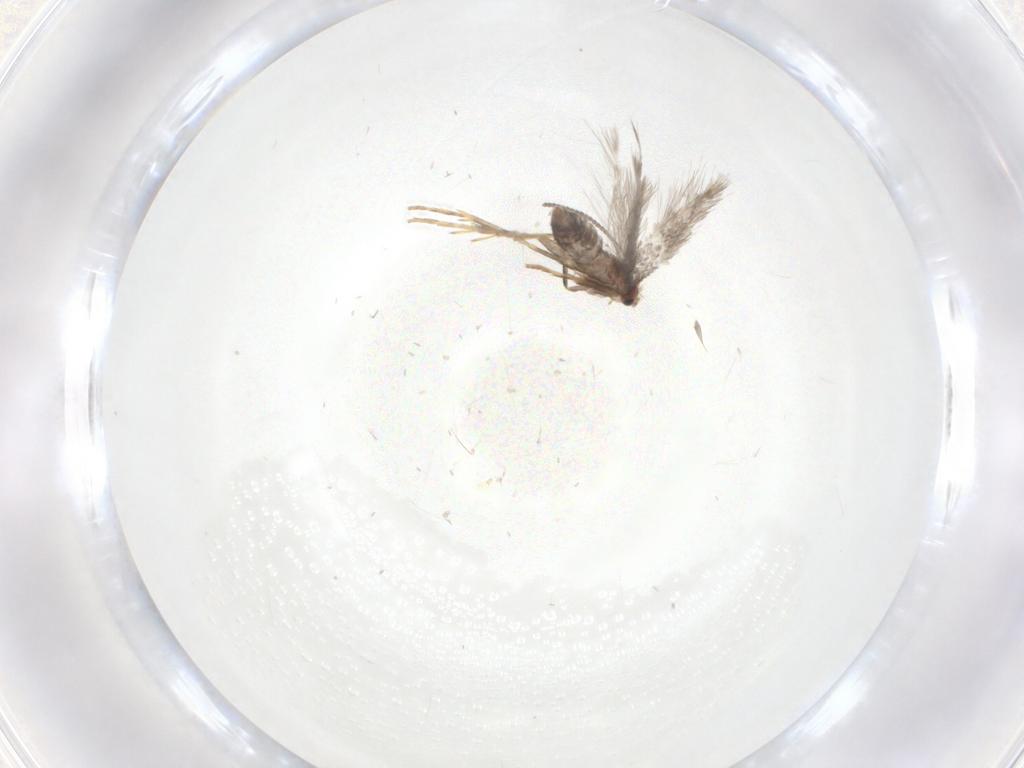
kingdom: Animalia
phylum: Arthropoda
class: Insecta
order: Lepidoptera
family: Nepticulidae
